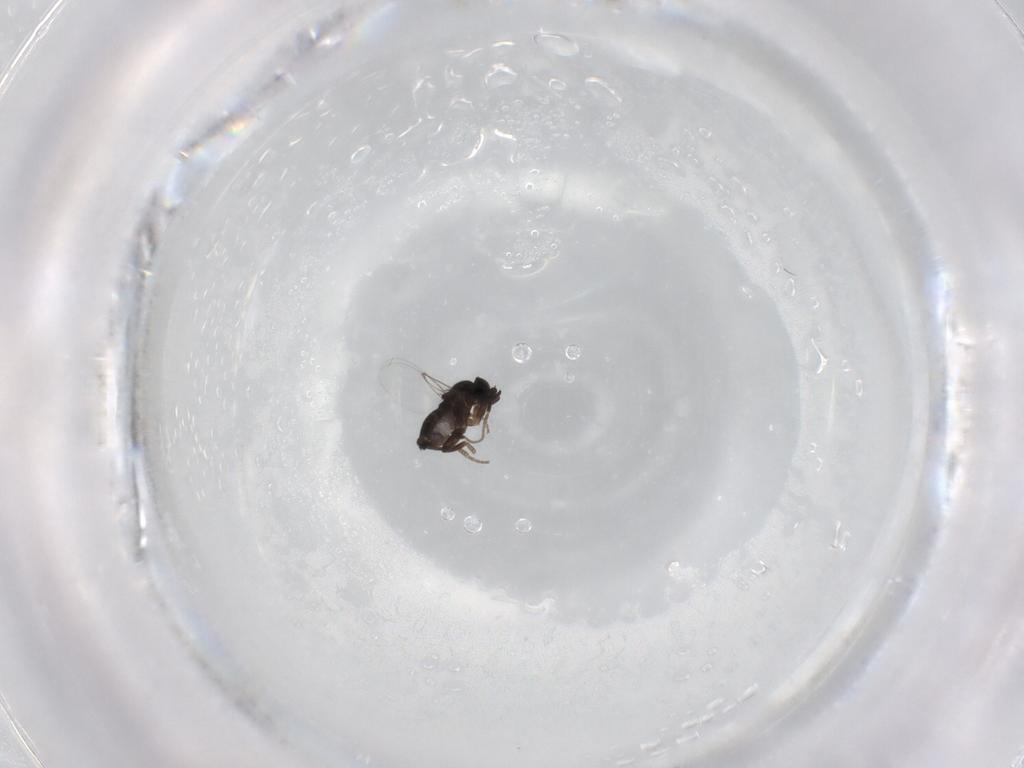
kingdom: Animalia
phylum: Arthropoda
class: Insecta
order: Diptera
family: Phoridae
